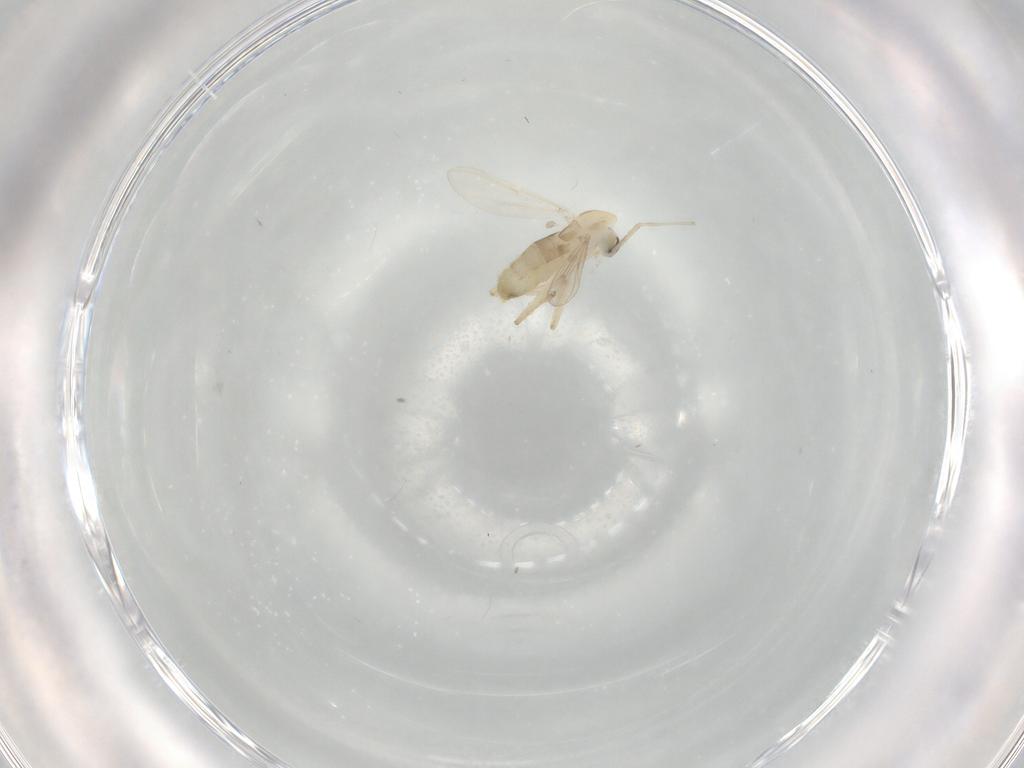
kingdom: Animalia
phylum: Arthropoda
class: Insecta
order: Diptera
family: Chironomidae
